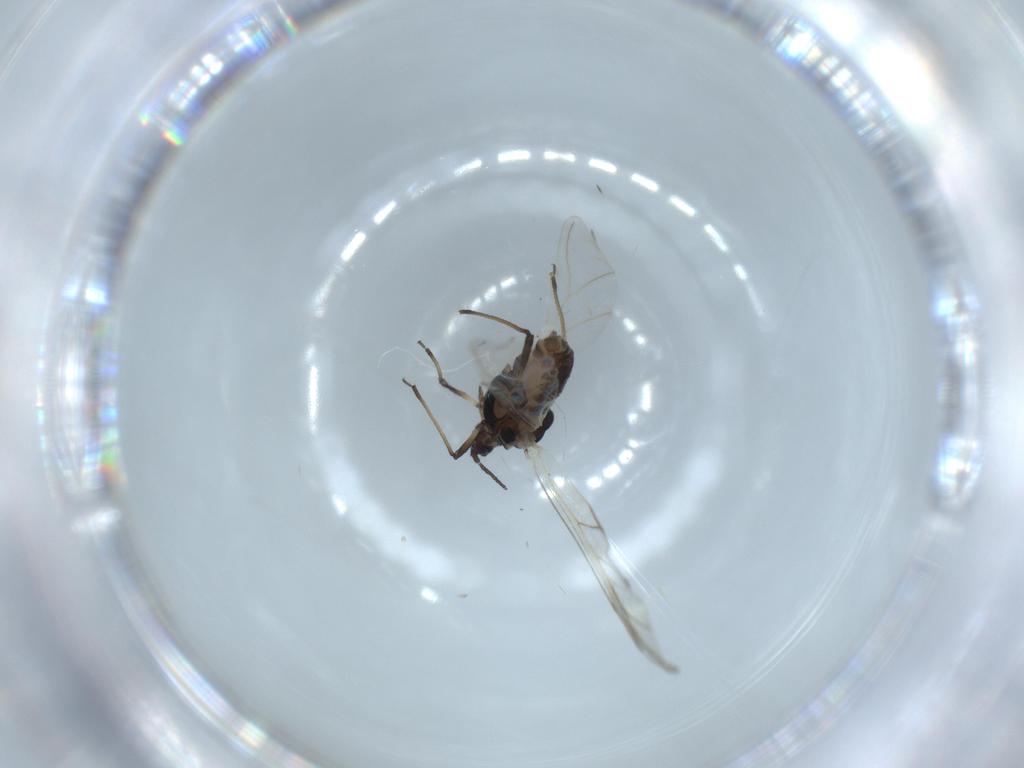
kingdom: Animalia
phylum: Arthropoda
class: Insecta
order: Hemiptera
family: Aphididae
